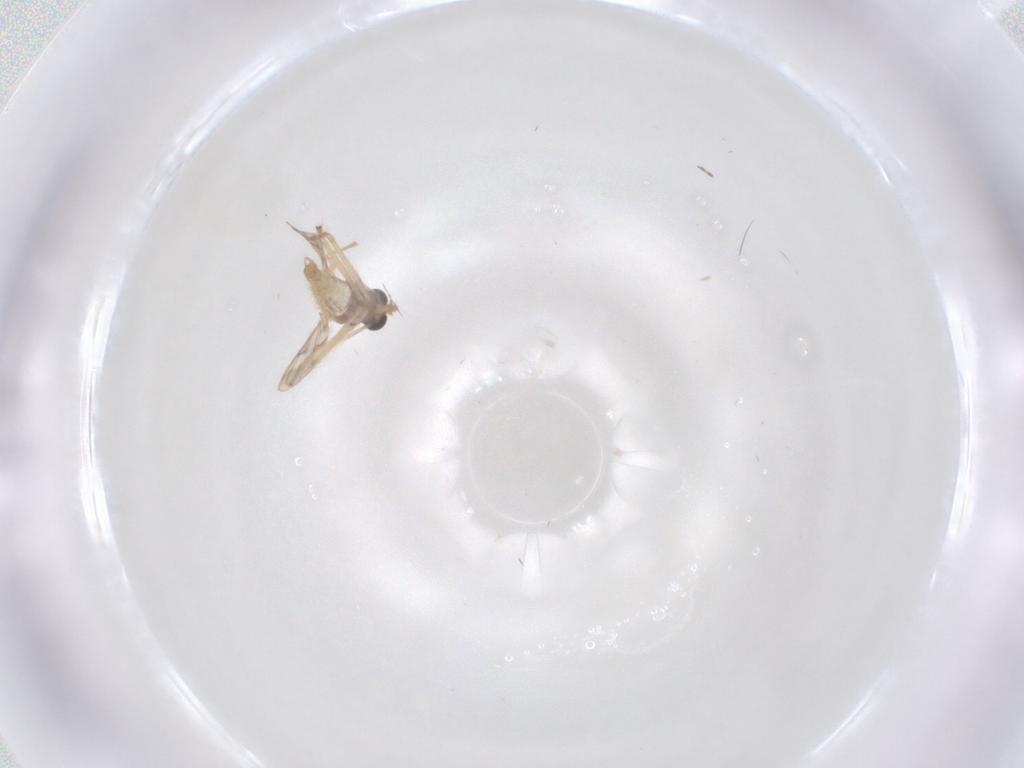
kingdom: Animalia
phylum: Arthropoda
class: Insecta
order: Diptera
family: Chironomidae
